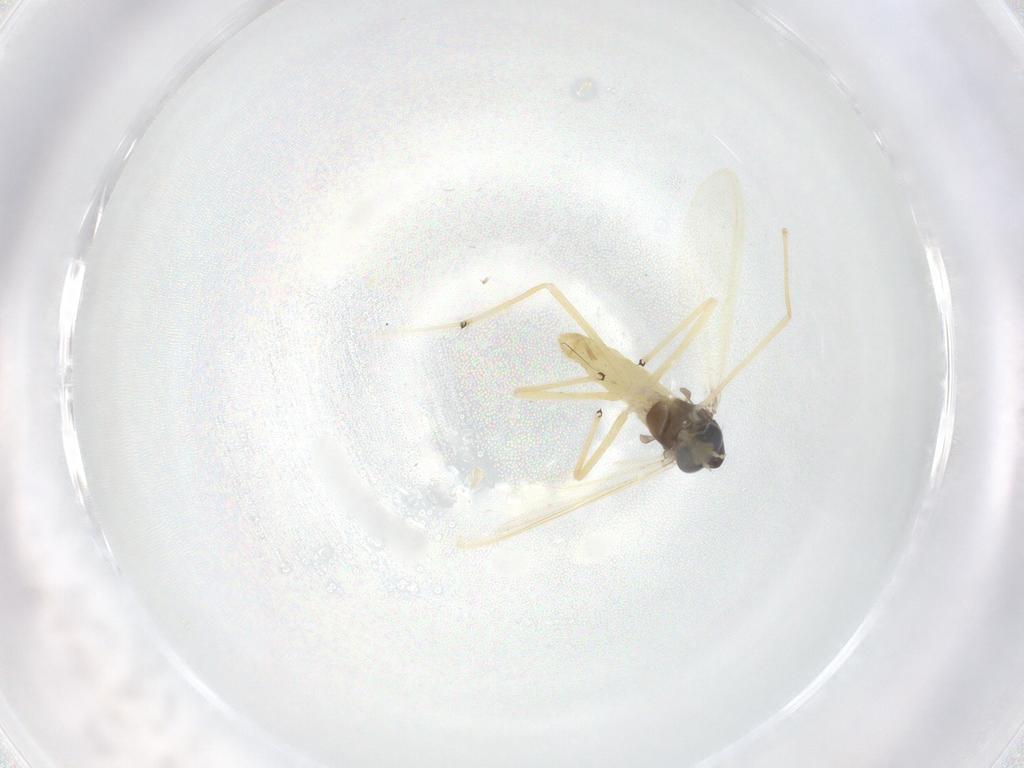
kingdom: Animalia
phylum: Arthropoda
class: Insecta
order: Diptera
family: Chironomidae
